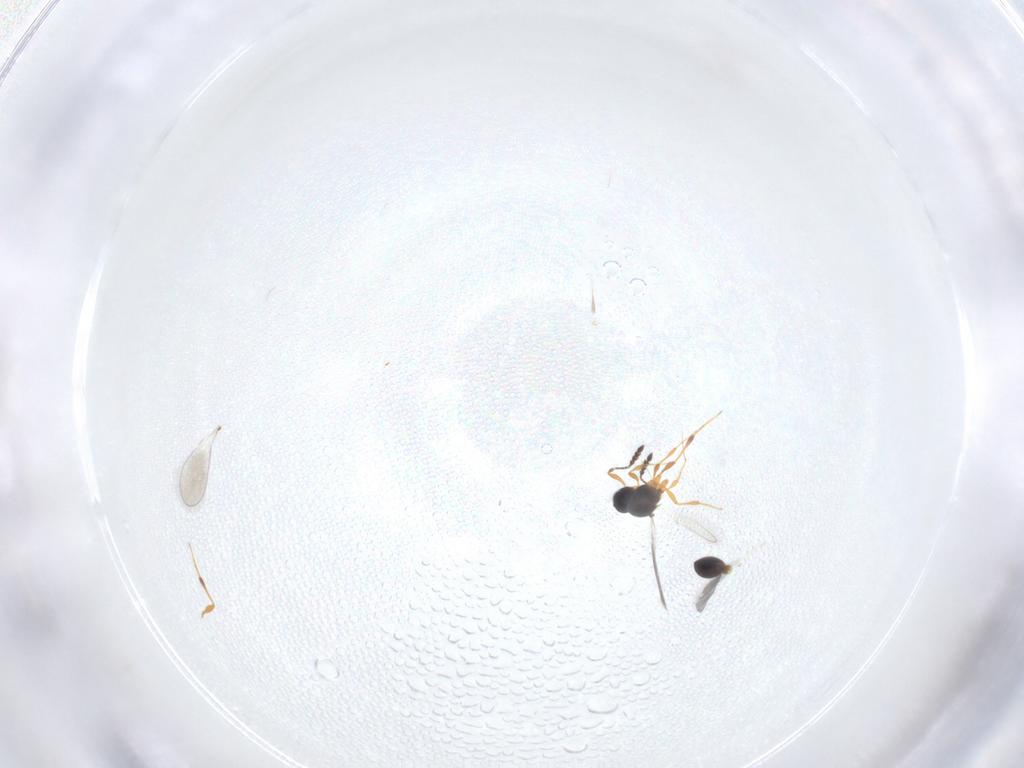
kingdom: Animalia
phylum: Arthropoda
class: Insecta
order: Hymenoptera
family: Platygastridae
